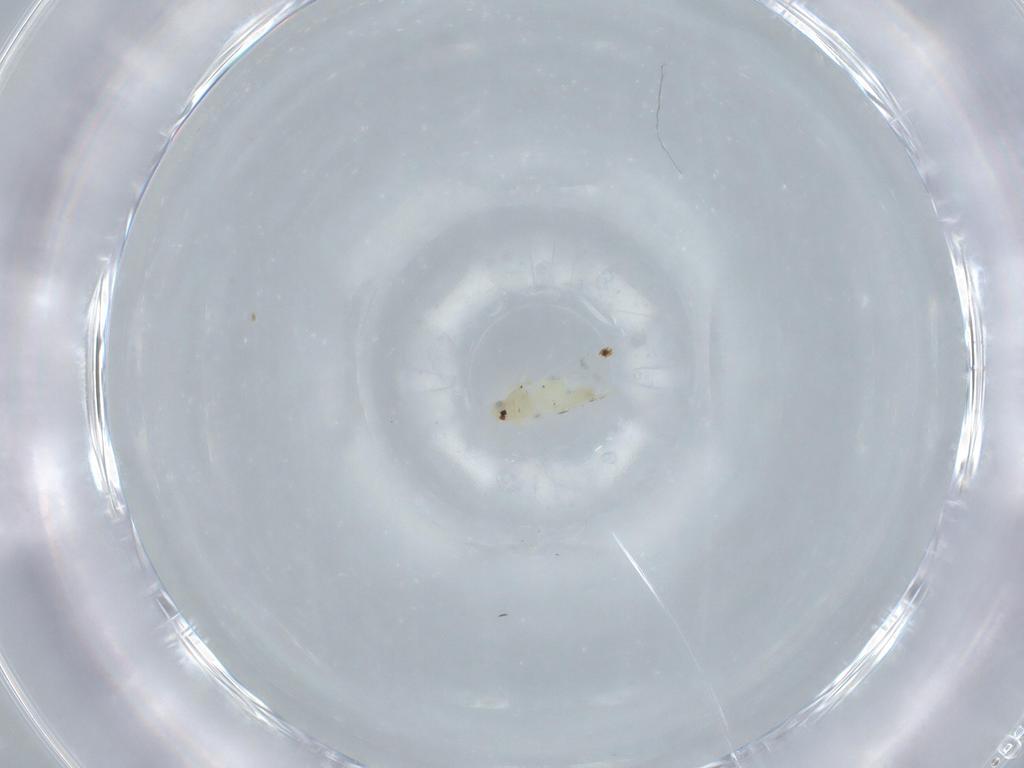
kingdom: Animalia
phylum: Arthropoda
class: Insecta
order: Hemiptera
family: Aleyrodidae
